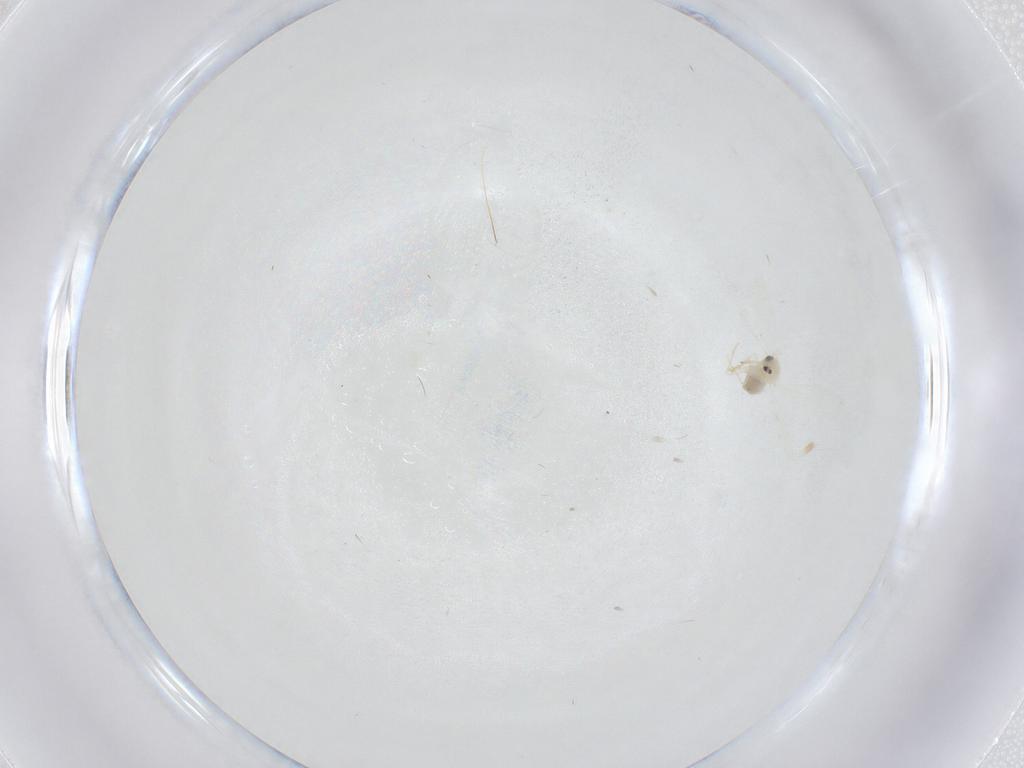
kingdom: Animalia
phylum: Arthropoda
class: Insecta
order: Hemiptera
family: Aleyrodidae
